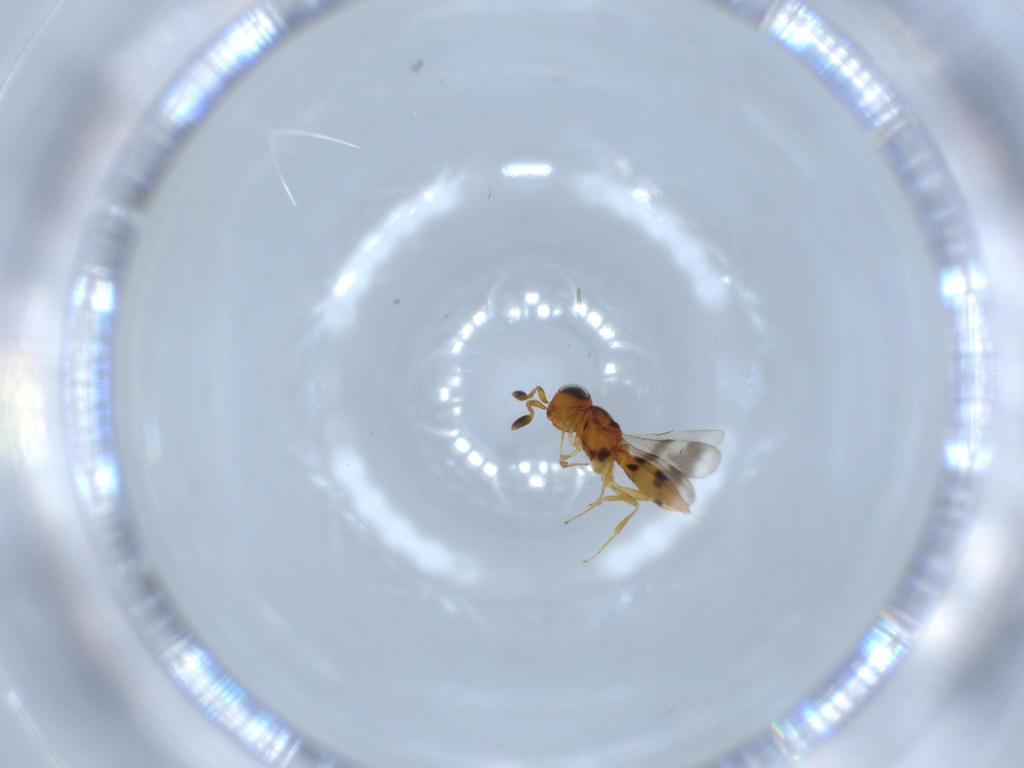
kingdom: Animalia
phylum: Arthropoda
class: Insecta
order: Hymenoptera
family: Scelionidae
